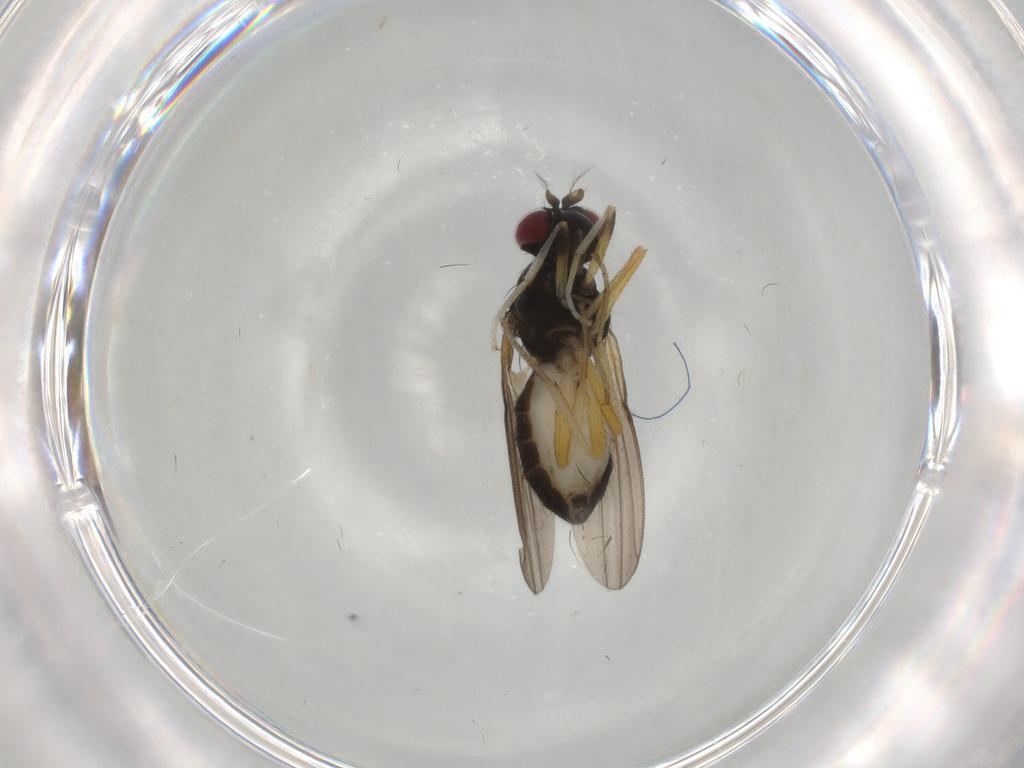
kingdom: Animalia
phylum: Arthropoda
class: Insecta
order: Diptera
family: Lauxaniidae
